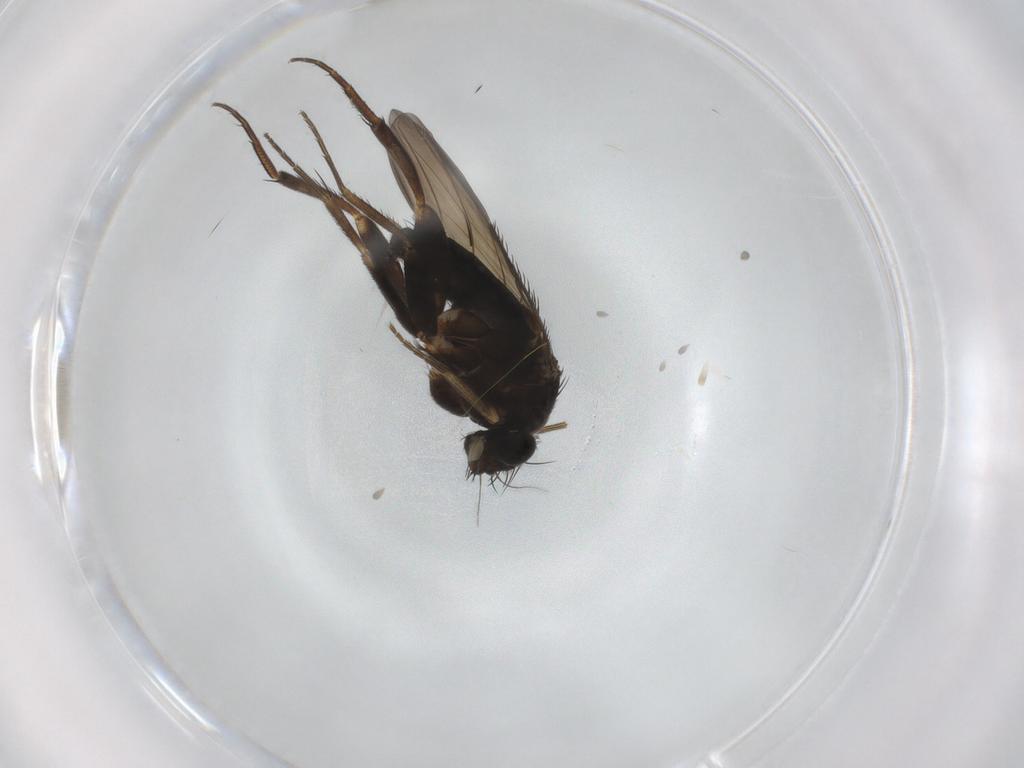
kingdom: Animalia
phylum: Arthropoda
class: Insecta
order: Diptera
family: Phoridae
